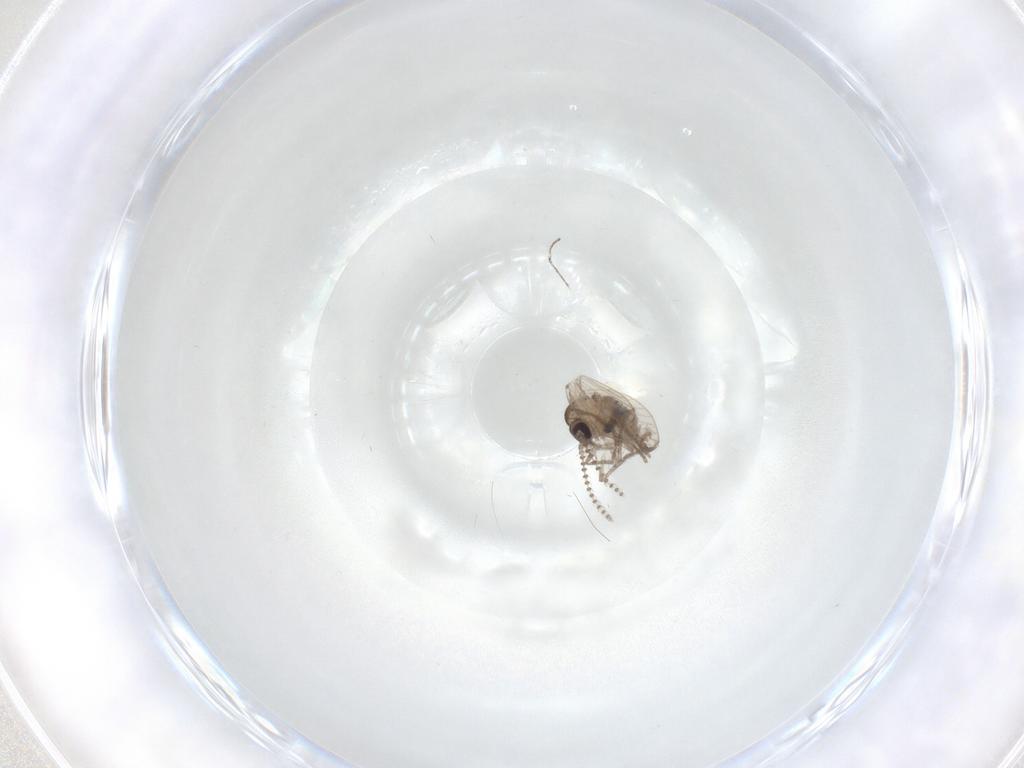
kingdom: Animalia
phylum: Arthropoda
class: Insecta
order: Diptera
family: Psychodidae
